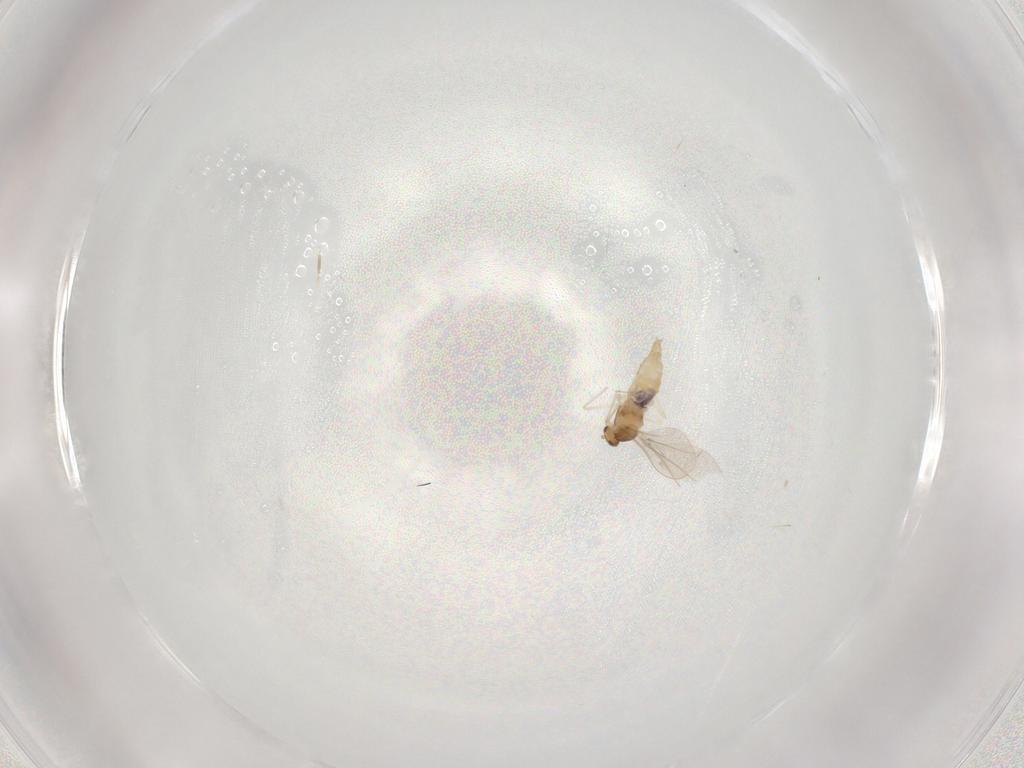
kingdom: Animalia
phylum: Arthropoda
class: Insecta
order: Diptera
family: Cecidomyiidae
